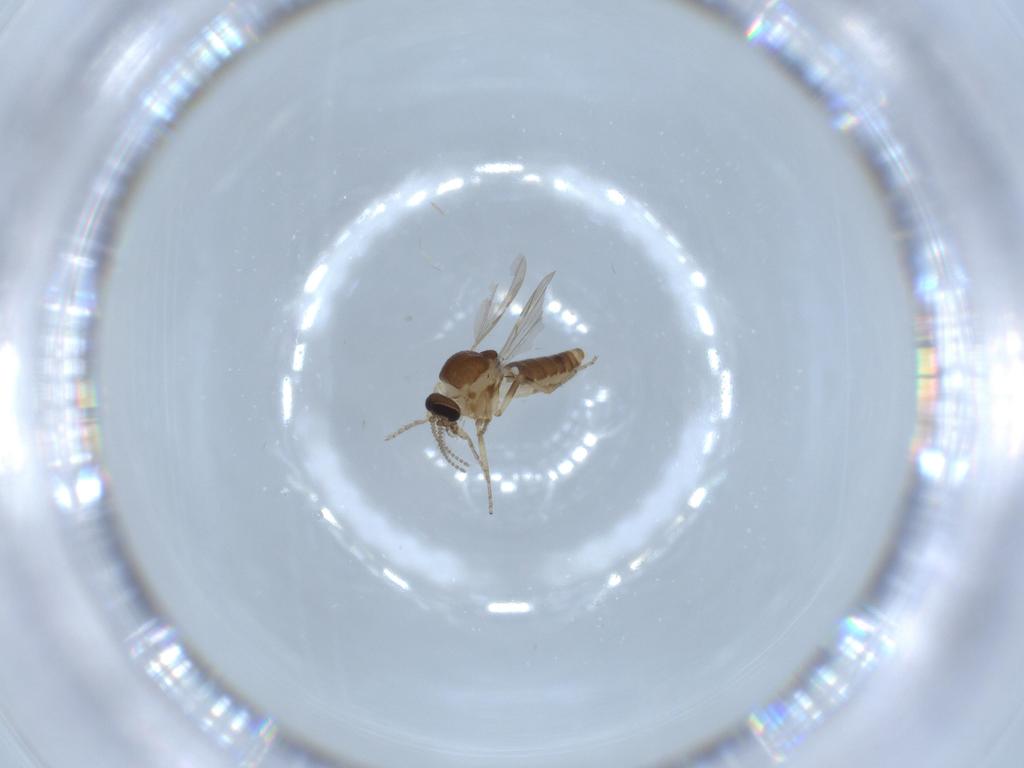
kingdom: Animalia
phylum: Arthropoda
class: Insecta
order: Diptera
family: Ceratopogonidae
